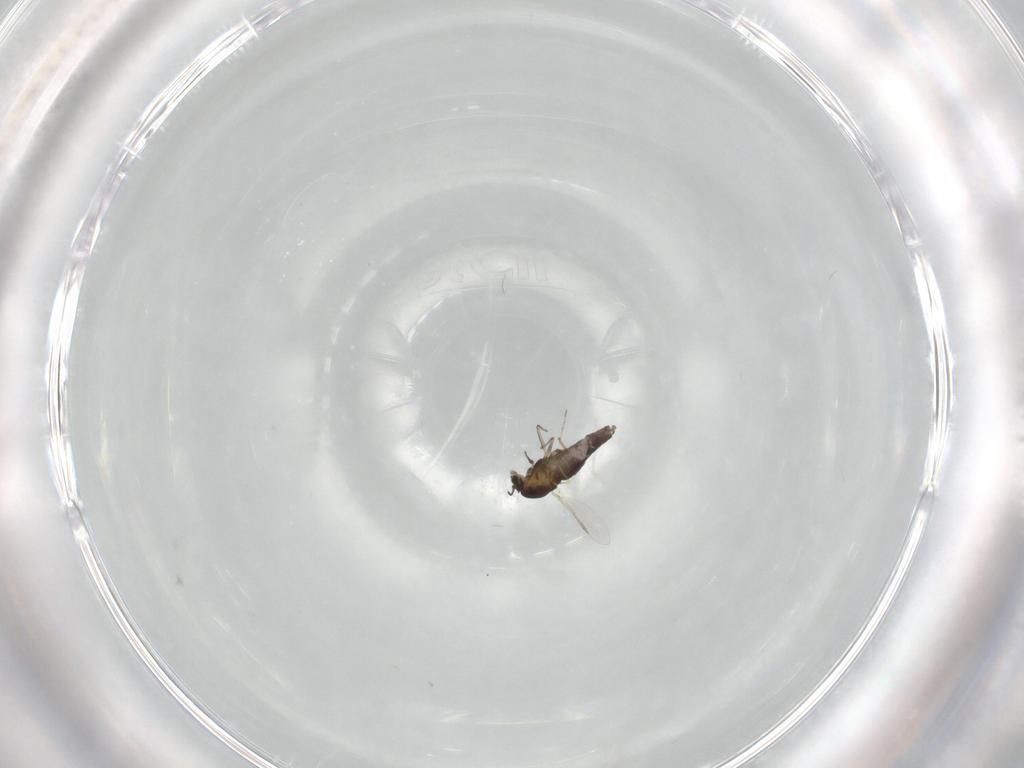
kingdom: Animalia
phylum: Arthropoda
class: Insecta
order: Diptera
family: Chironomidae
